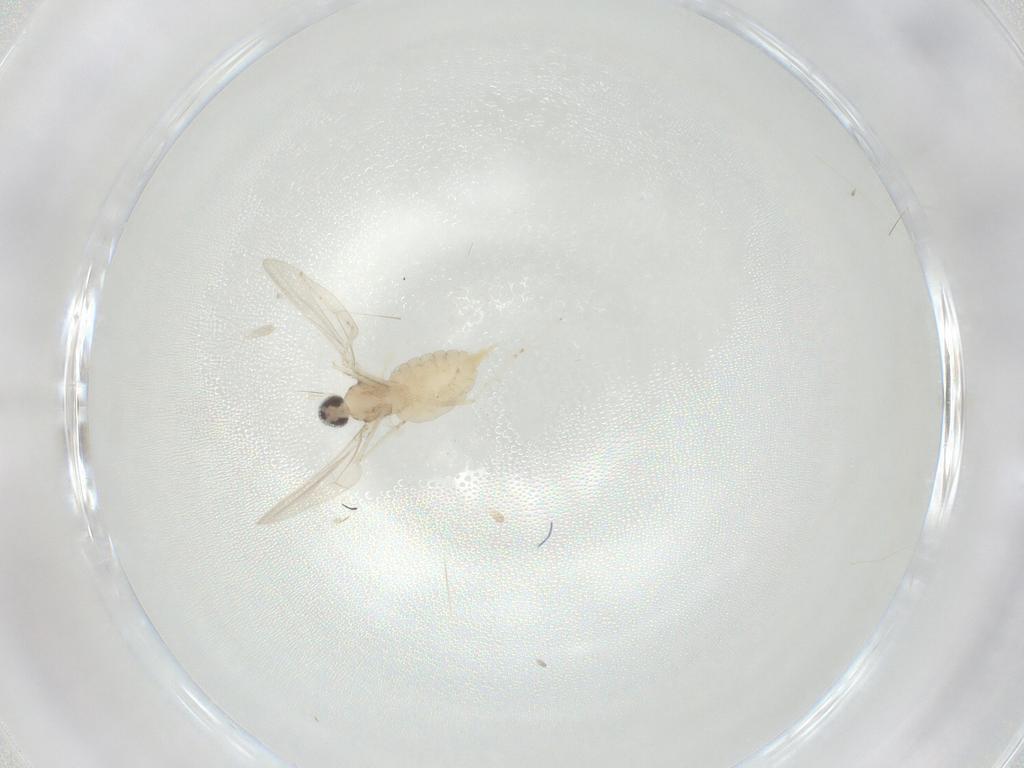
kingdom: Animalia
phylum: Arthropoda
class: Insecta
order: Diptera
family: Cecidomyiidae
